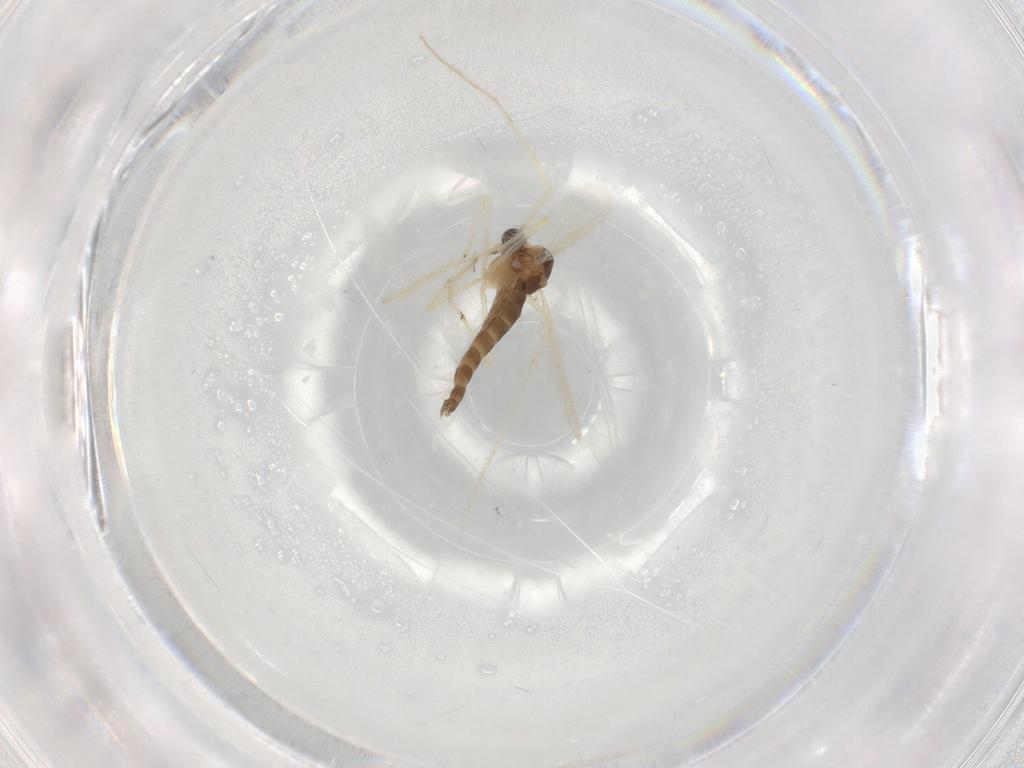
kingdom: Animalia
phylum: Arthropoda
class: Insecta
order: Diptera
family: Chironomidae
